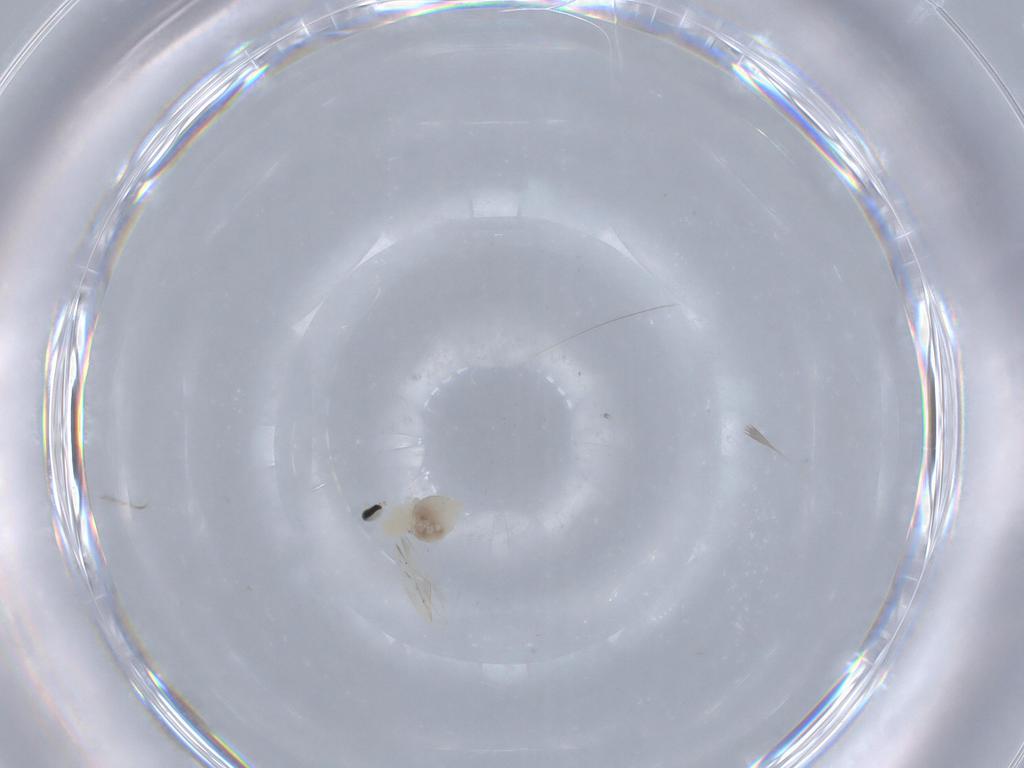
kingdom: Animalia
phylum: Arthropoda
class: Insecta
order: Diptera
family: Cecidomyiidae
